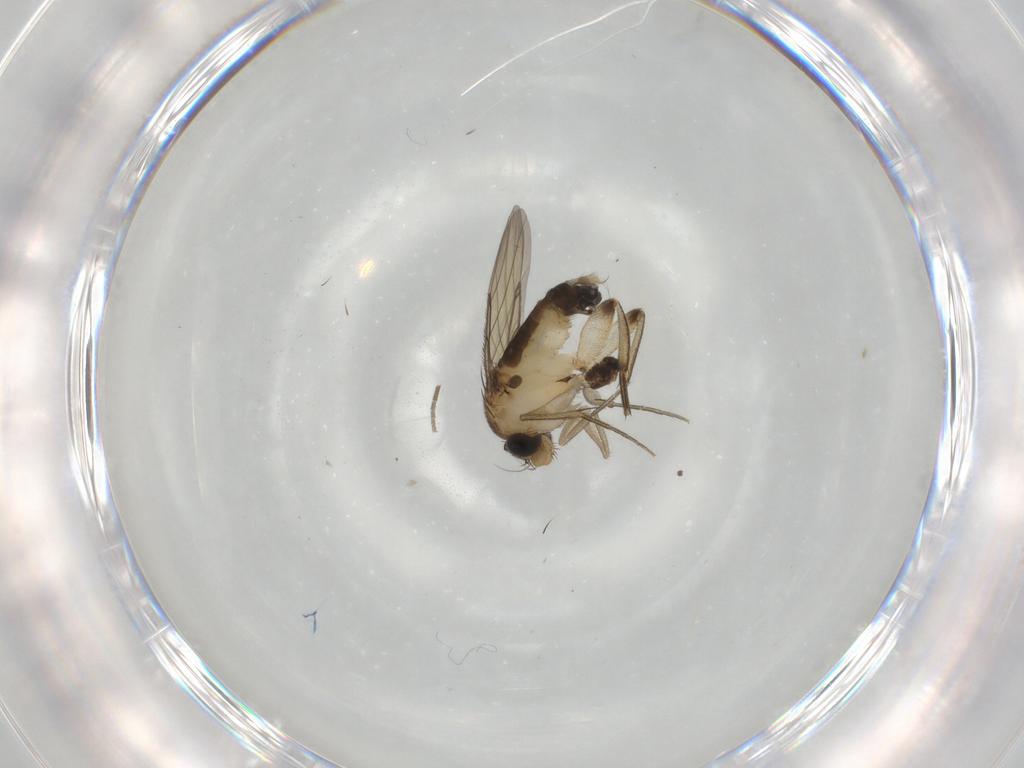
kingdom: Animalia
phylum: Arthropoda
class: Insecta
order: Diptera
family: Phoridae
